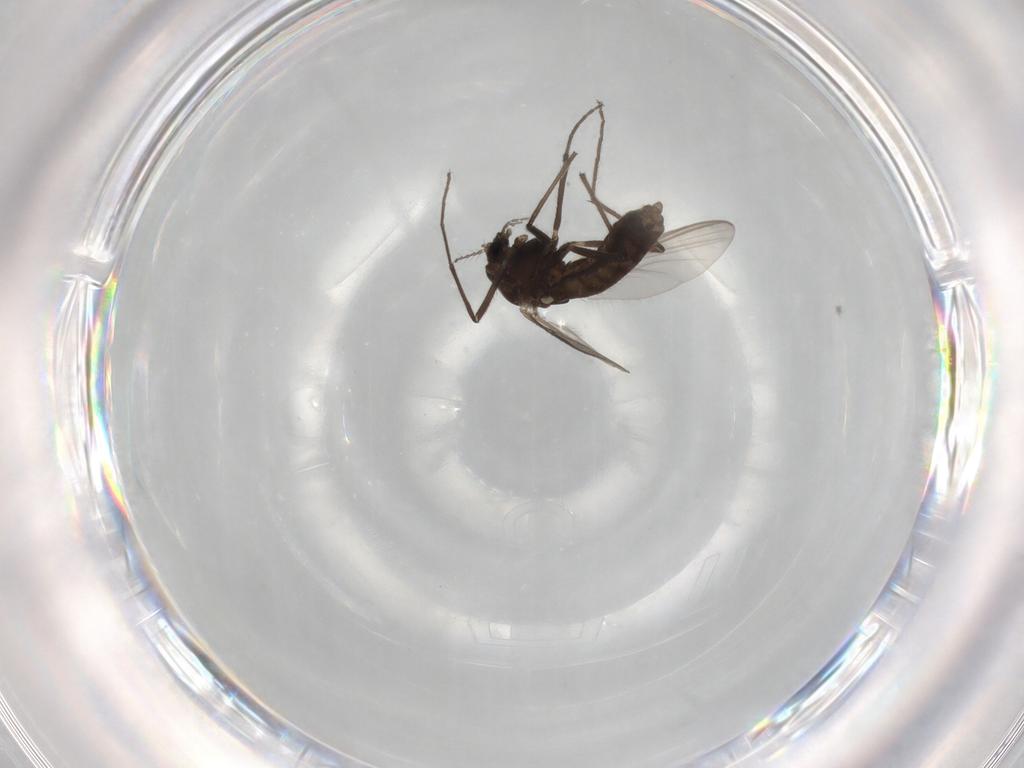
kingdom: Animalia
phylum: Arthropoda
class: Insecta
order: Diptera
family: Chironomidae
